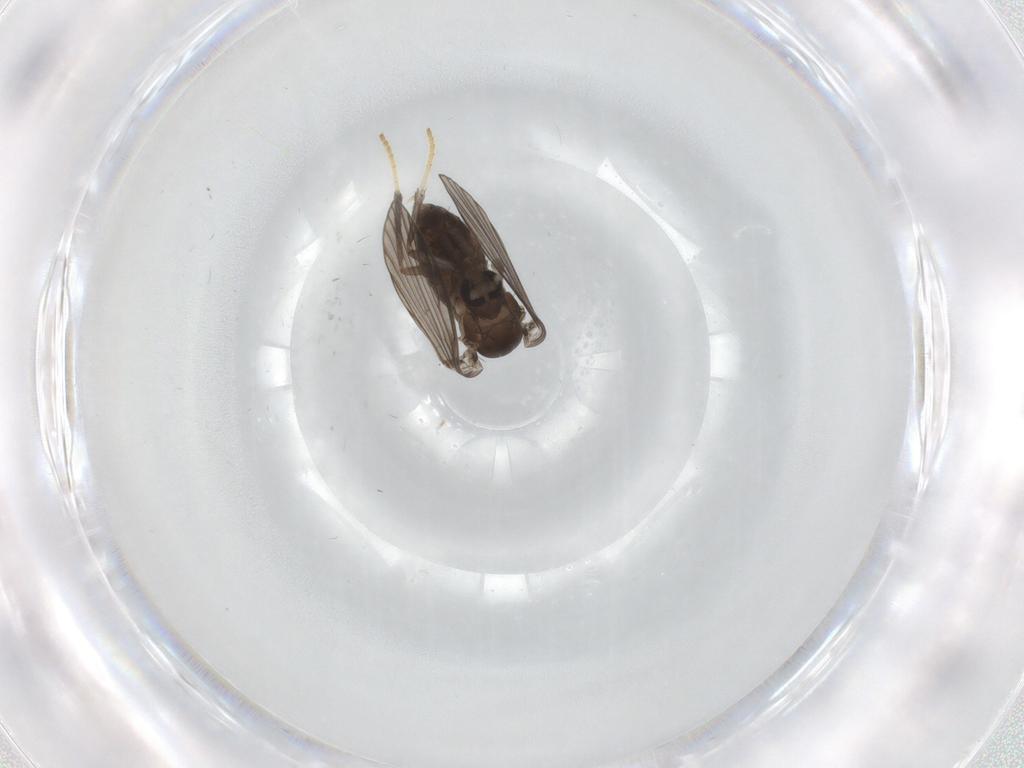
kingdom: Animalia
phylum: Arthropoda
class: Insecta
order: Diptera
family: Psychodidae
